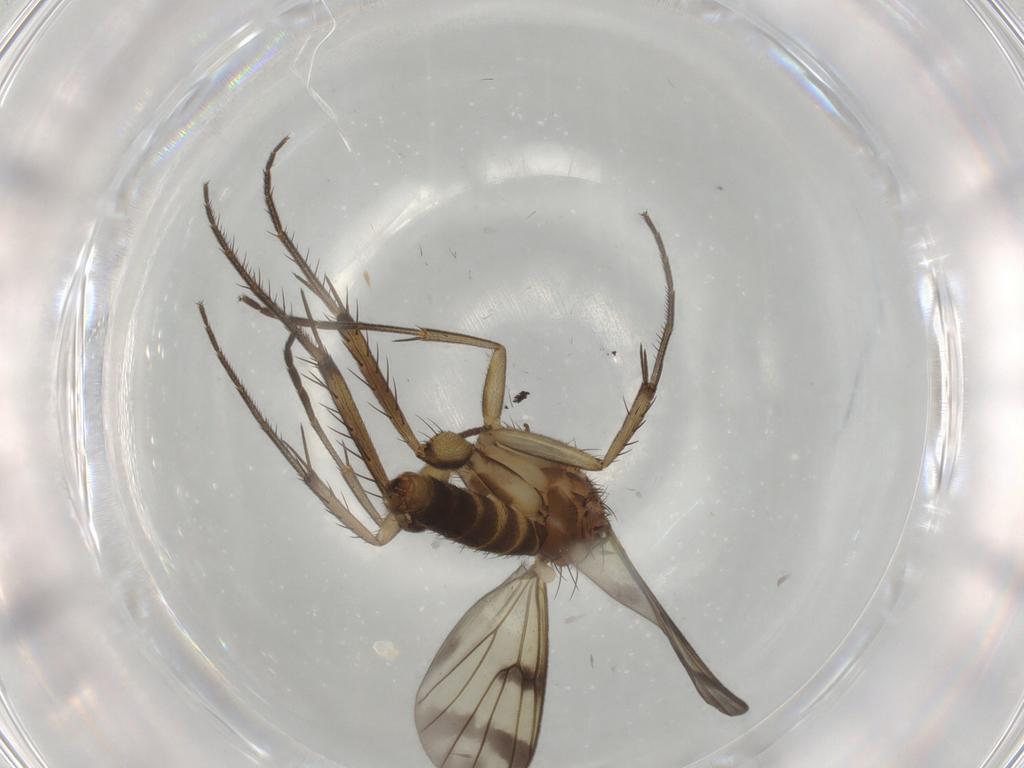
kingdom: Animalia
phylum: Arthropoda
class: Insecta
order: Diptera
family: Mycetophilidae
